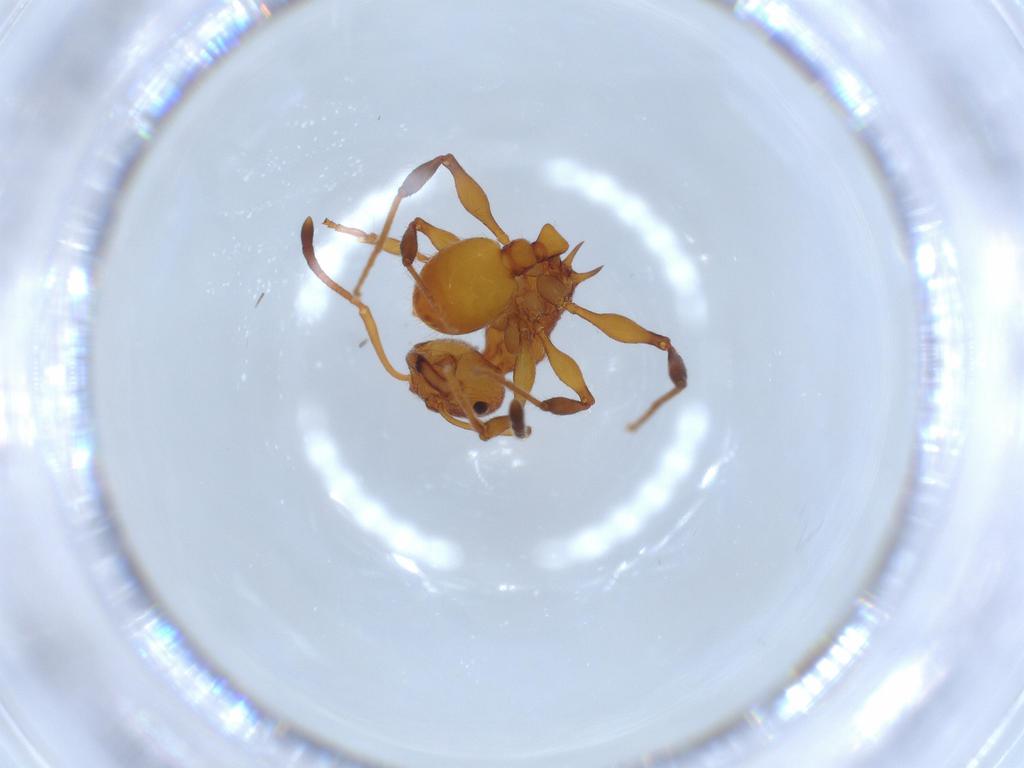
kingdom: Animalia
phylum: Arthropoda
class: Insecta
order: Hymenoptera
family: Formicidae
